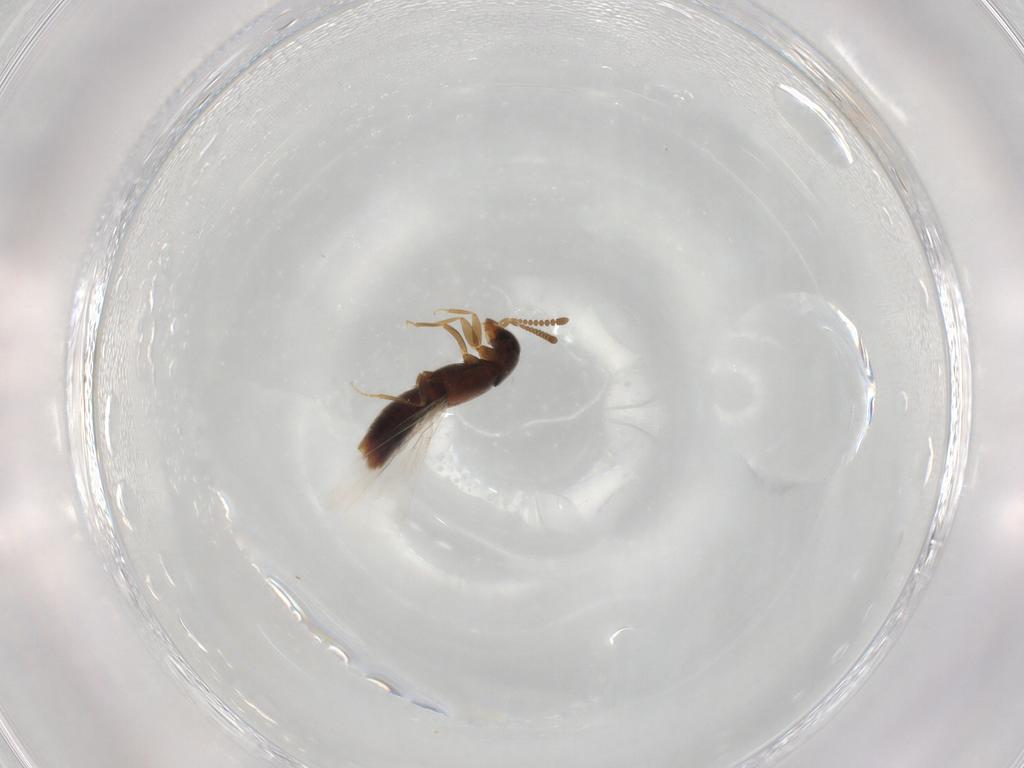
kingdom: Animalia
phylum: Arthropoda
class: Insecta
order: Coleoptera
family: Staphylinidae
